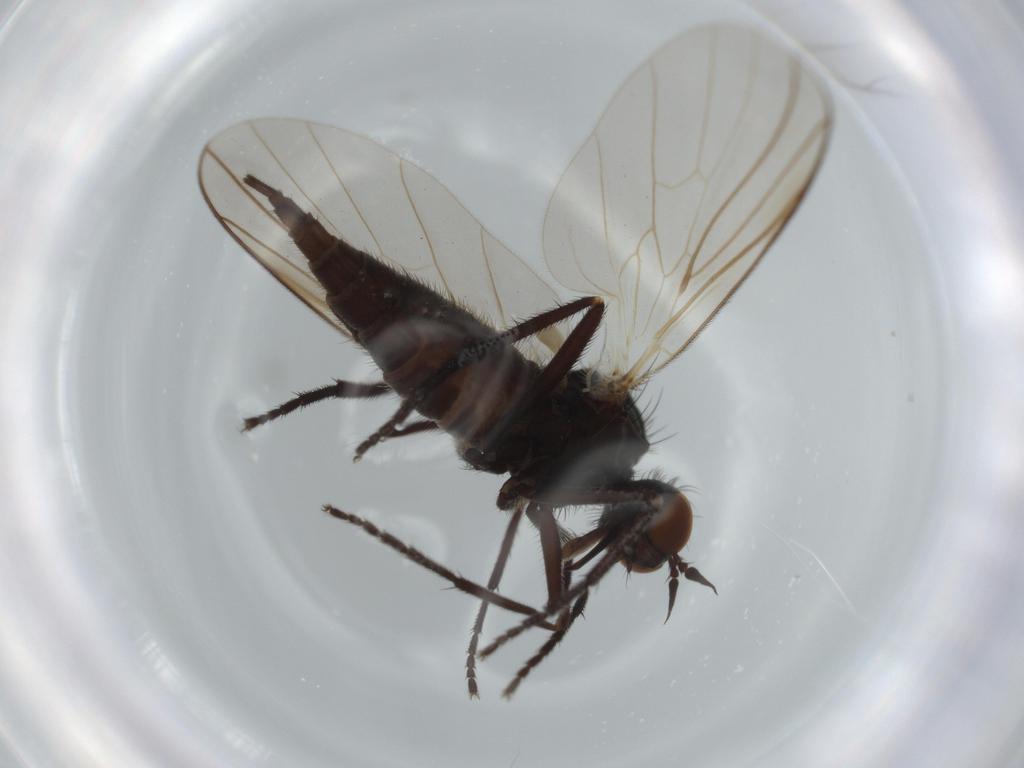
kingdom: Animalia
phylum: Arthropoda
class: Insecta
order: Diptera
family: Empididae
